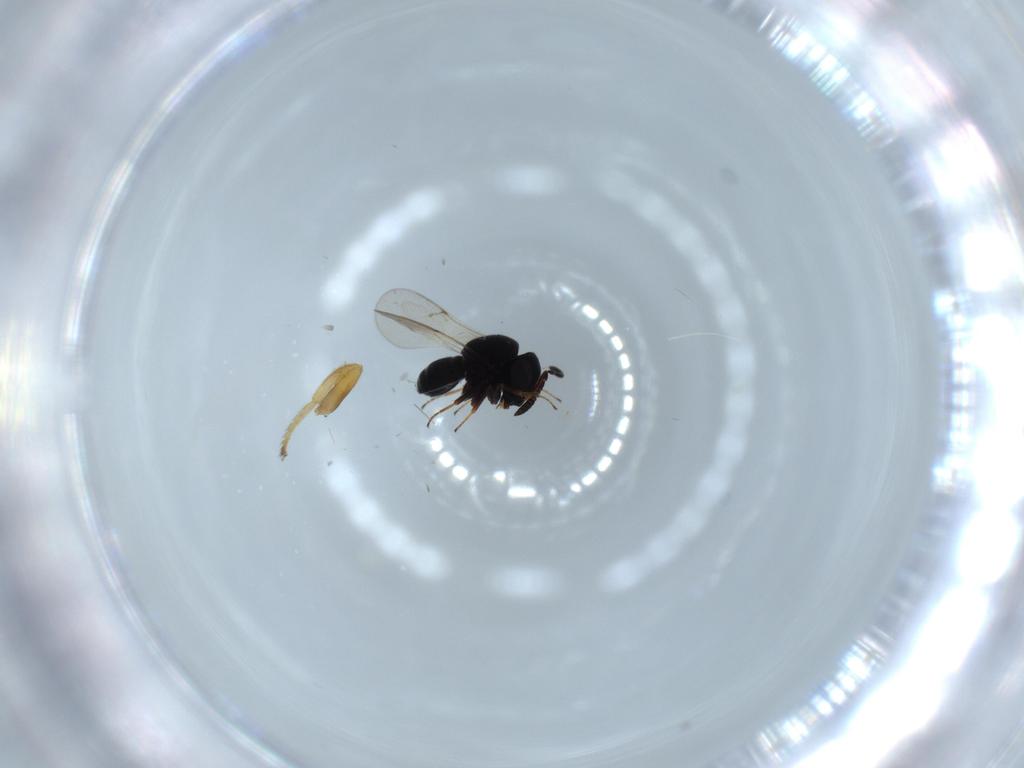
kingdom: Animalia
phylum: Arthropoda
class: Insecta
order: Hymenoptera
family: Scelionidae
